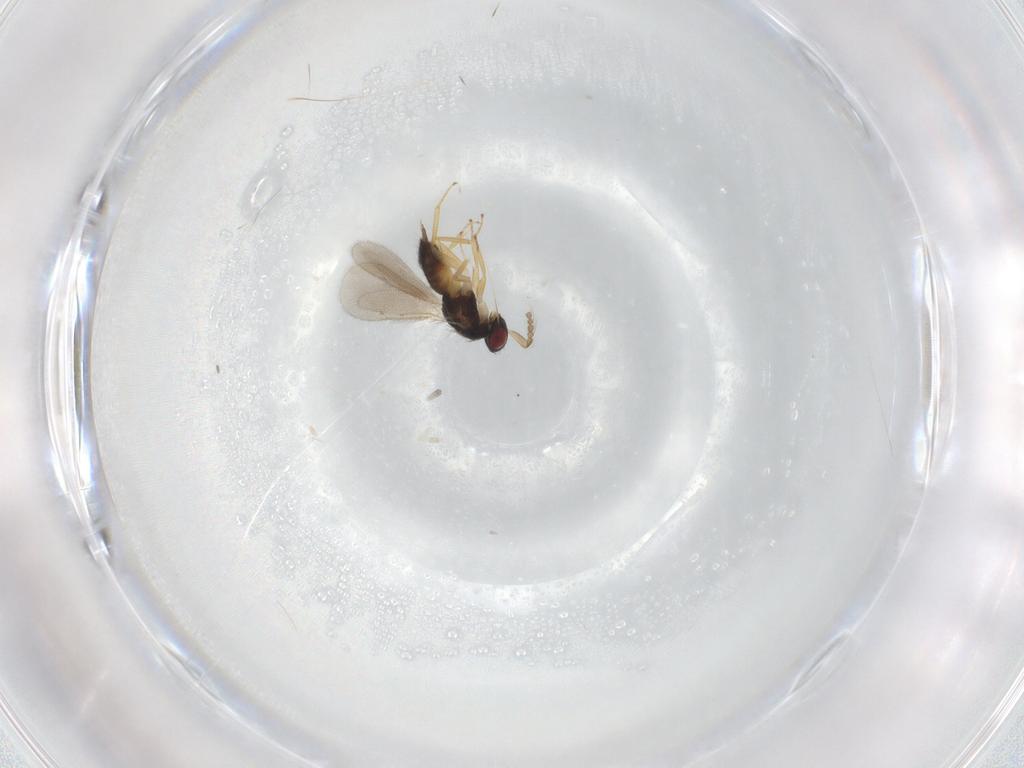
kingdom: Animalia
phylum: Arthropoda
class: Insecta
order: Hymenoptera
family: Eulophidae
